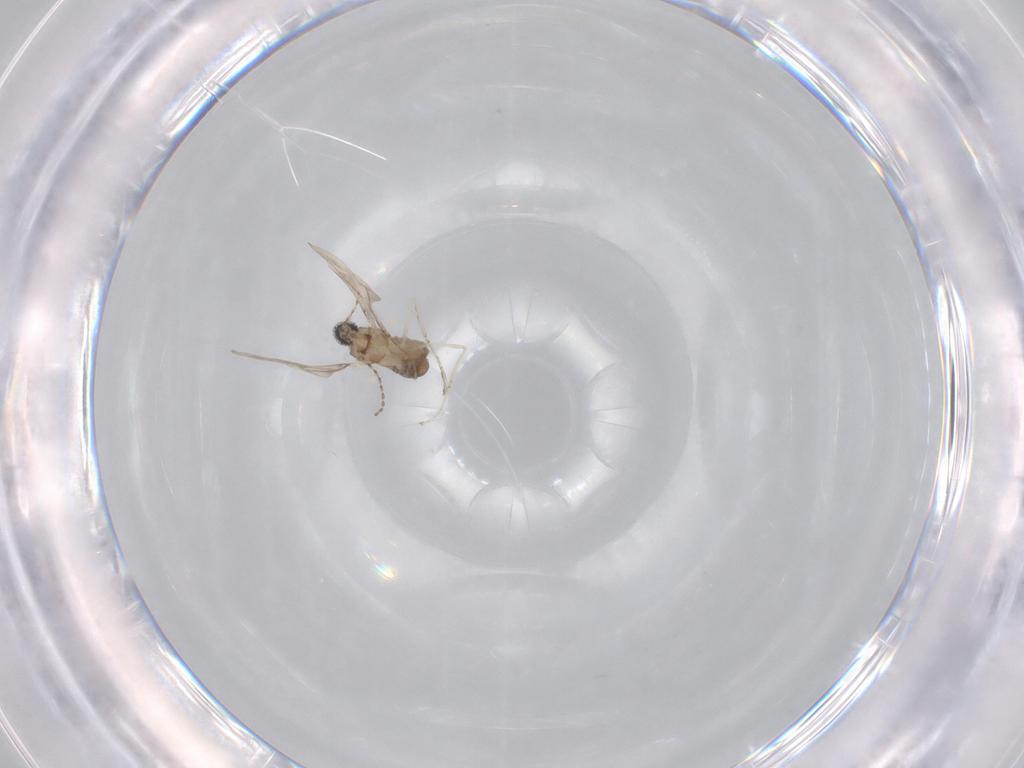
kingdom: Animalia
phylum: Arthropoda
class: Insecta
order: Diptera
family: Cecidomyiidae
